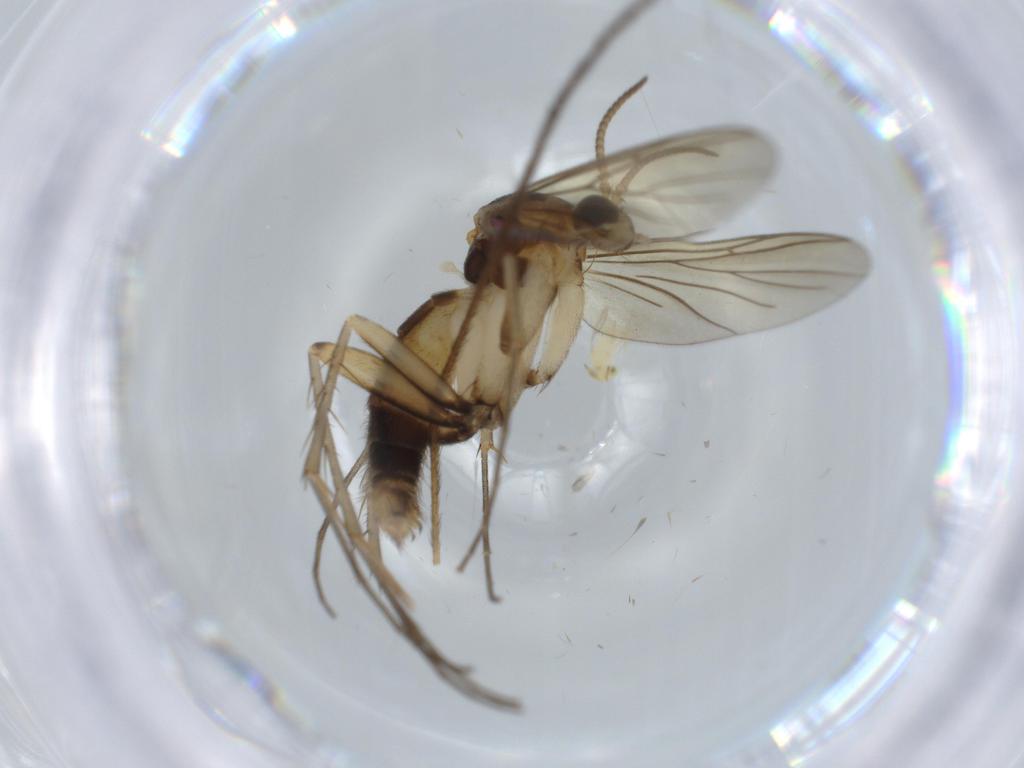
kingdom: Animalia
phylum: Arthropoda
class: Insecta
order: Diptera
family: Mycetophilidae
